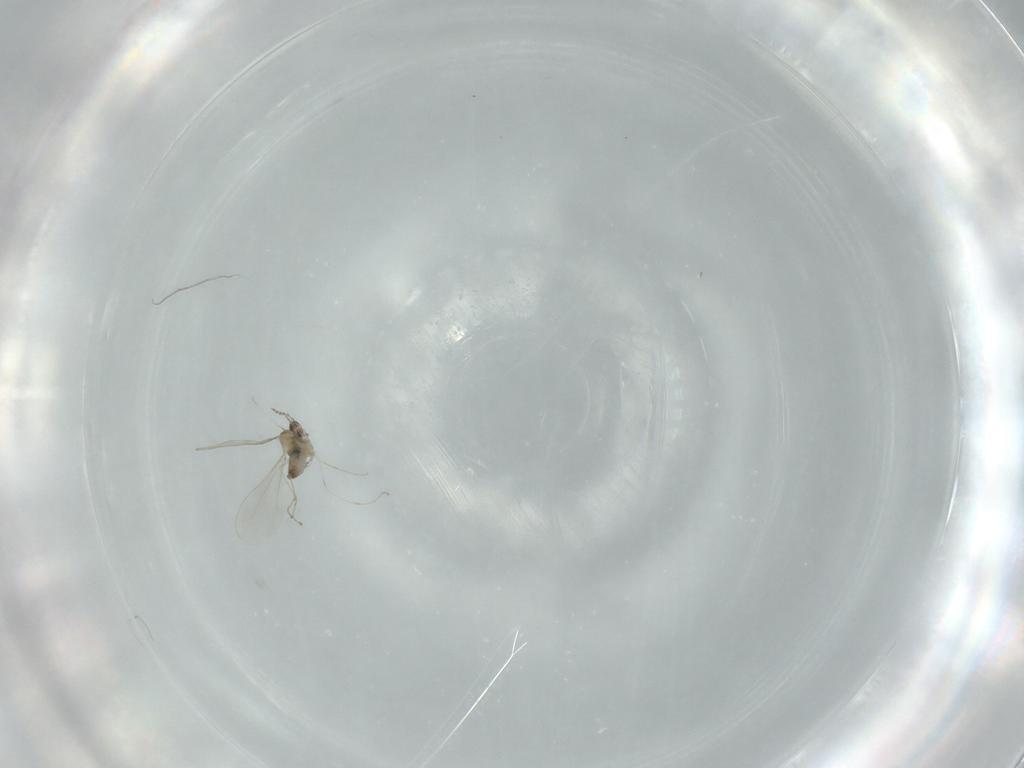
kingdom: Animalia
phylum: Arthropoda
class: Insecta
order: Diptera
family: Cecidomyiidae
